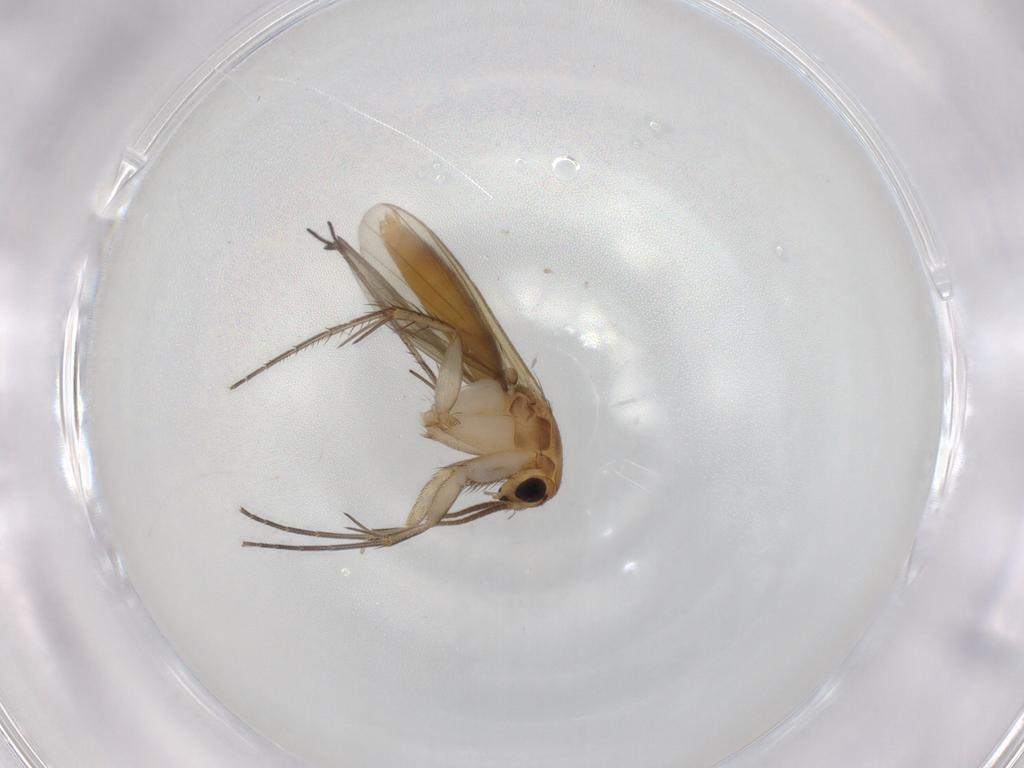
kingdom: Animalia
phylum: Arthropoda
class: Insecta
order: Diptera
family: Mycetophilidae
